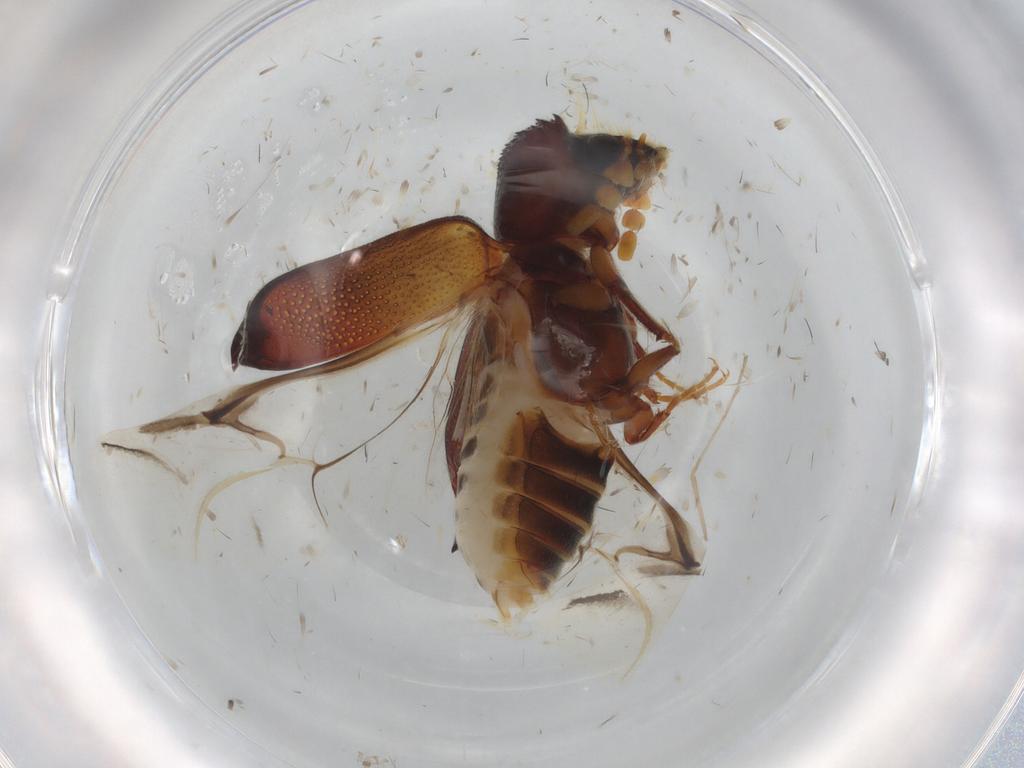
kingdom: Animalia
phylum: Arthropoda
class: Insecta
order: Coleoptera
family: Bostrichidae
